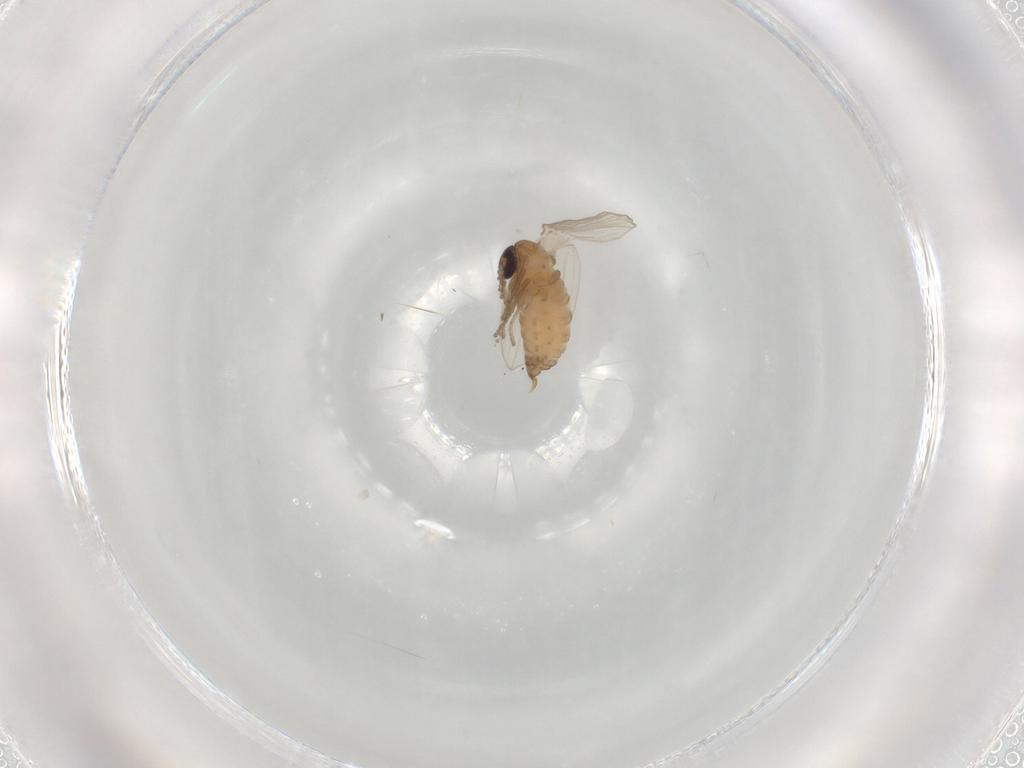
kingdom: Animalia
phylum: Arthropoda
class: Insecta
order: Diptera
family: Psychodidae
